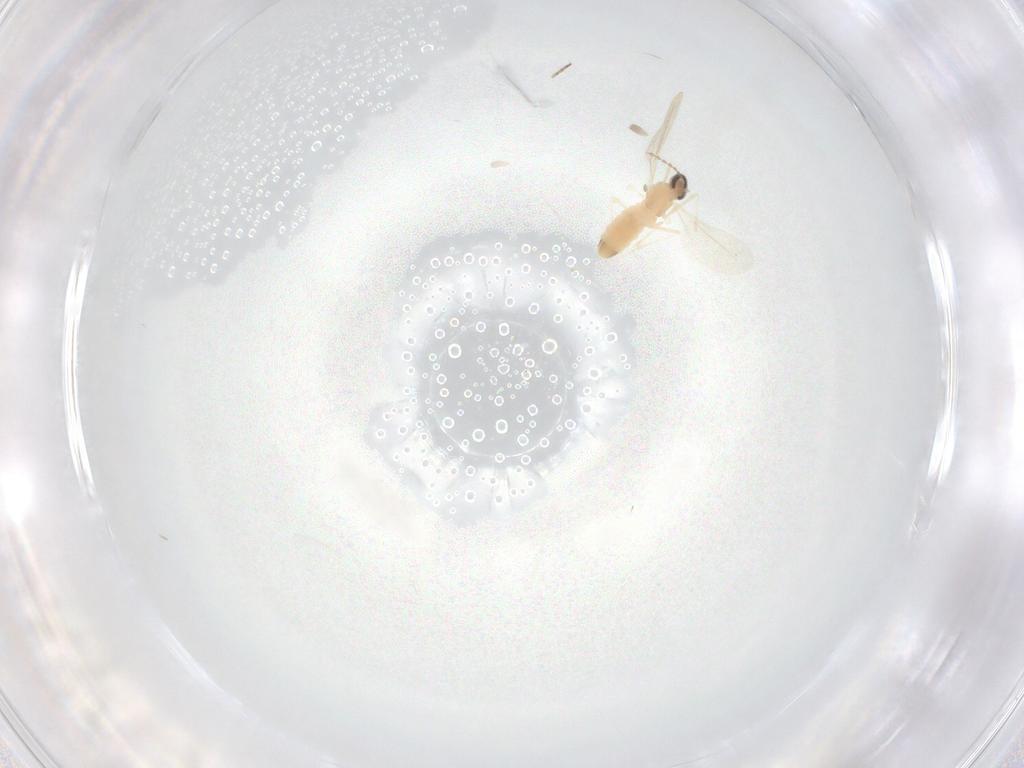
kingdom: Animalia
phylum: Arthropoda
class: Insecta
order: Diptera
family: Cecidomyiidae
